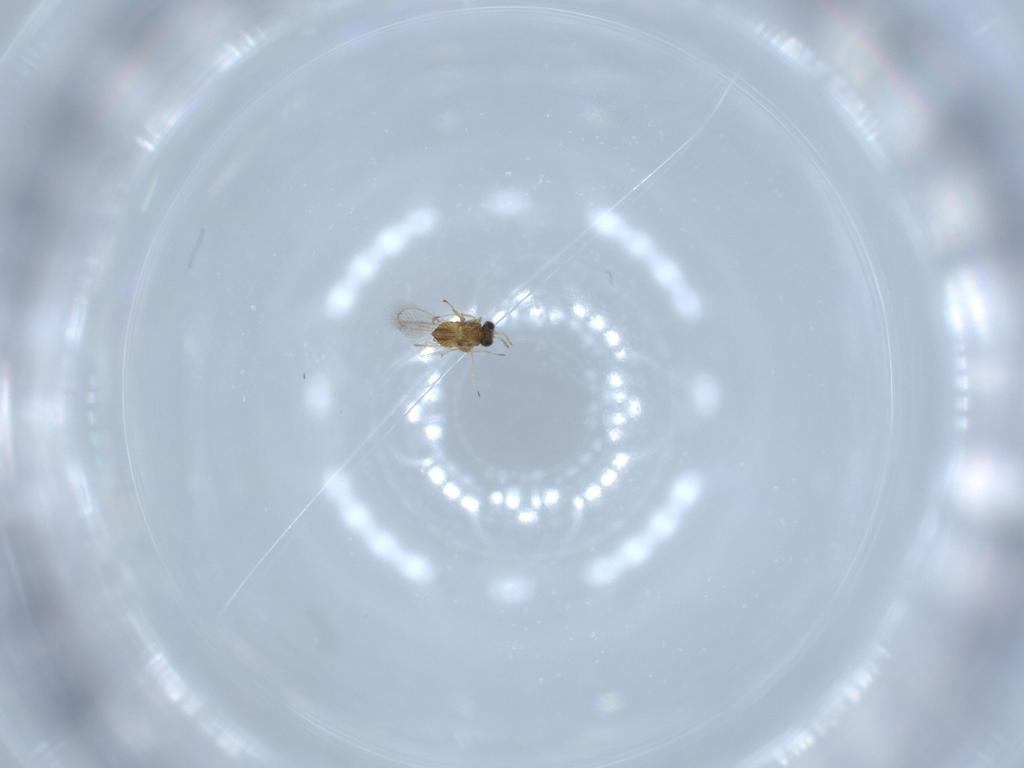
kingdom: Animalia
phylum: Arthropoda
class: Insecta
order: Hymenoptera
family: Trichogrammatidae
